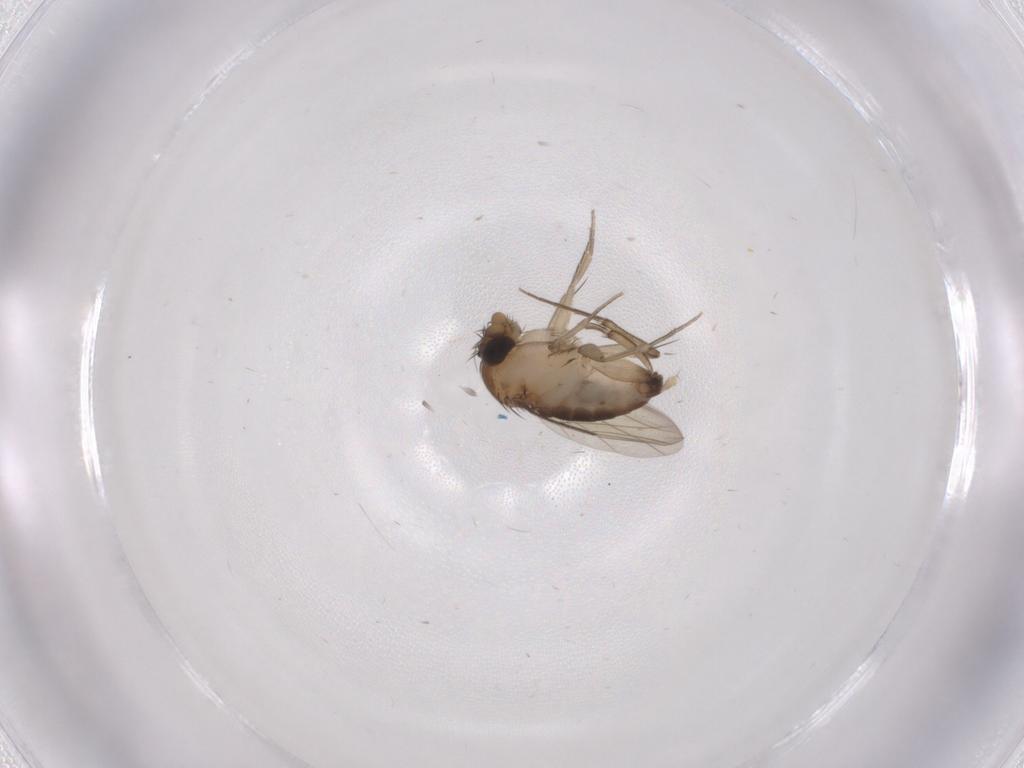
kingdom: Animalia
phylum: Arthropoda
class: Insecta
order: Diptera
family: Phoridae
